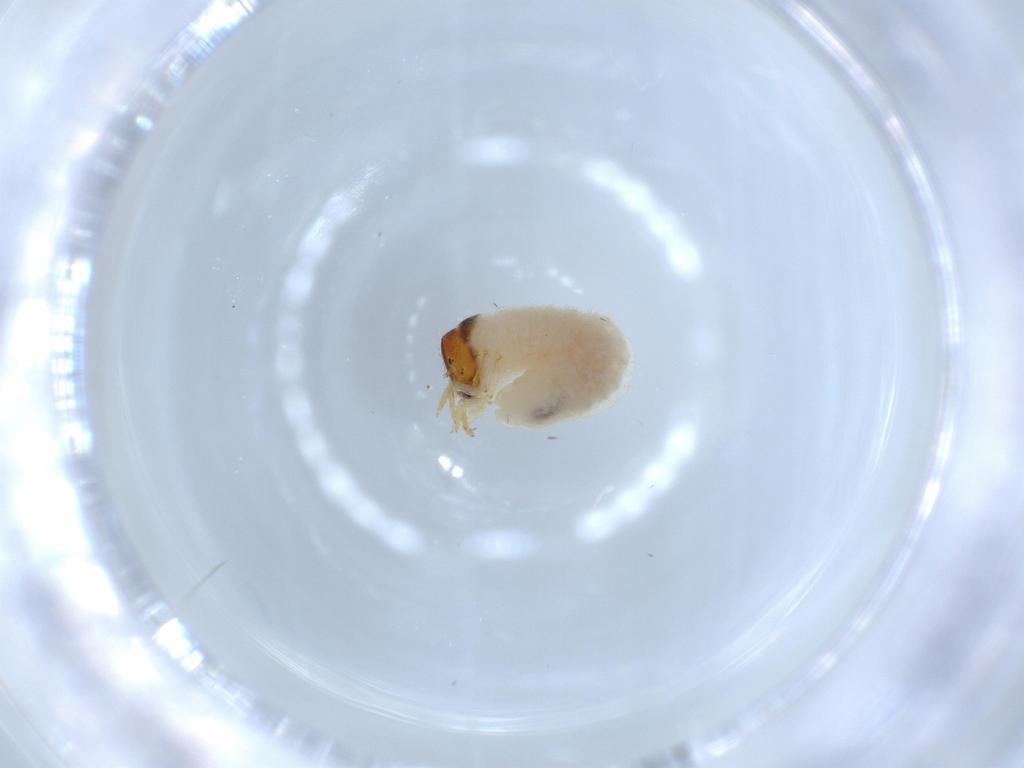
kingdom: Animalia
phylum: Arthropoda
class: Insecta
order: Coleoptera
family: Chrysomelidae
